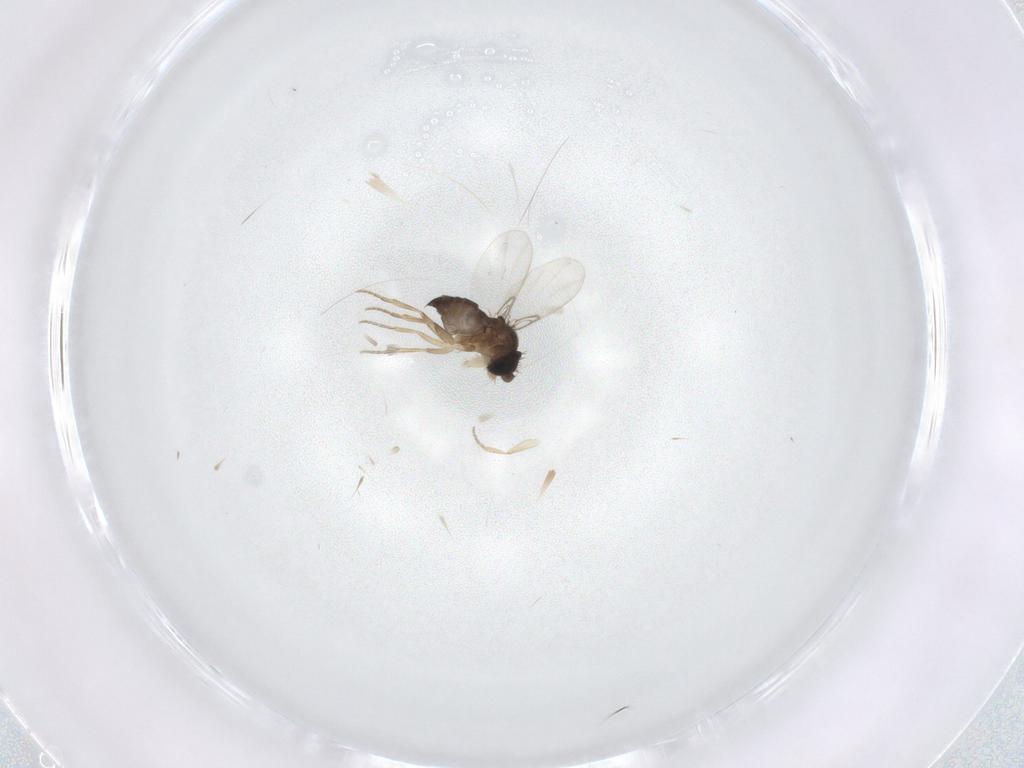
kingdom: Animalia
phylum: Arthropoda
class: Insecta
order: Diptera
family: Phoridae
